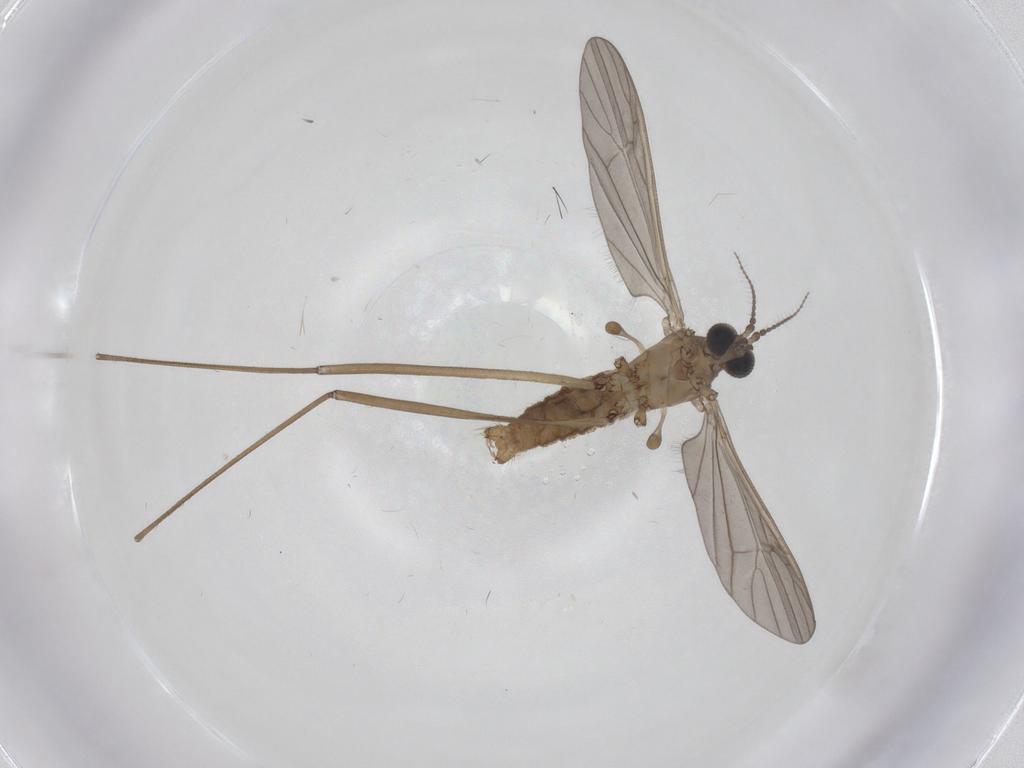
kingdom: Animalia
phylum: Arthropoda
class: Insecta
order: Diptera
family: Limoniidae
